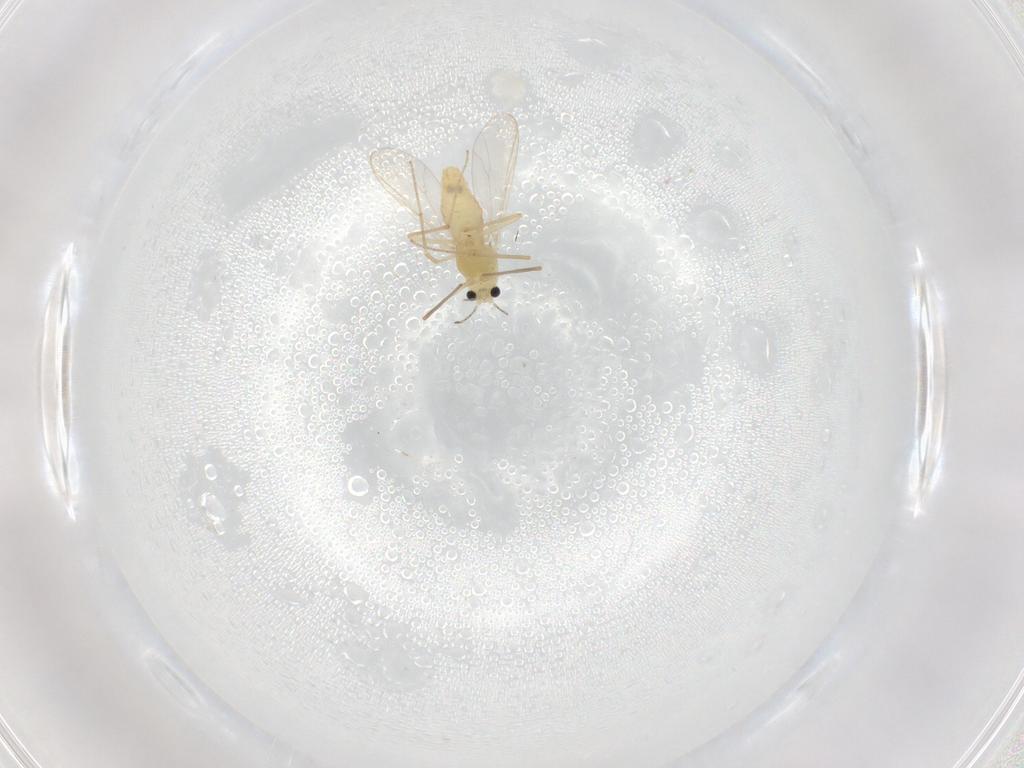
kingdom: Animalia
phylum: Arthropoda
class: Insecta
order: Diptera
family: Chironomidae
